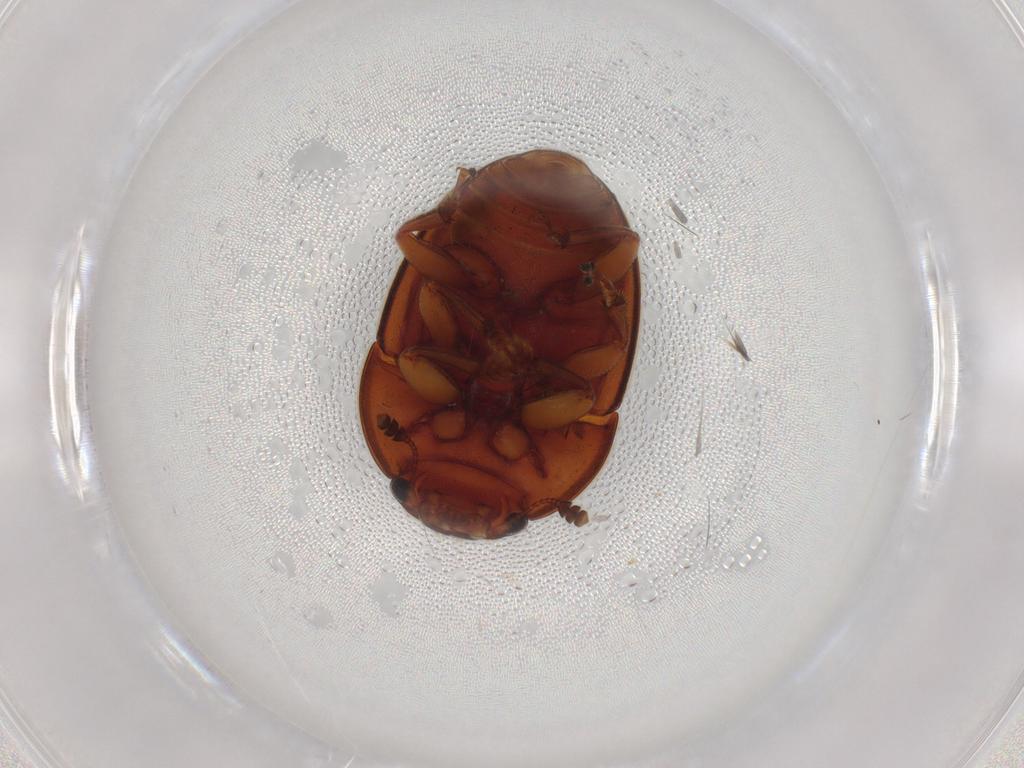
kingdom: Animalia
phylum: Arthropoda
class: Insecta
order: Coleoptera
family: Nitidulidae
